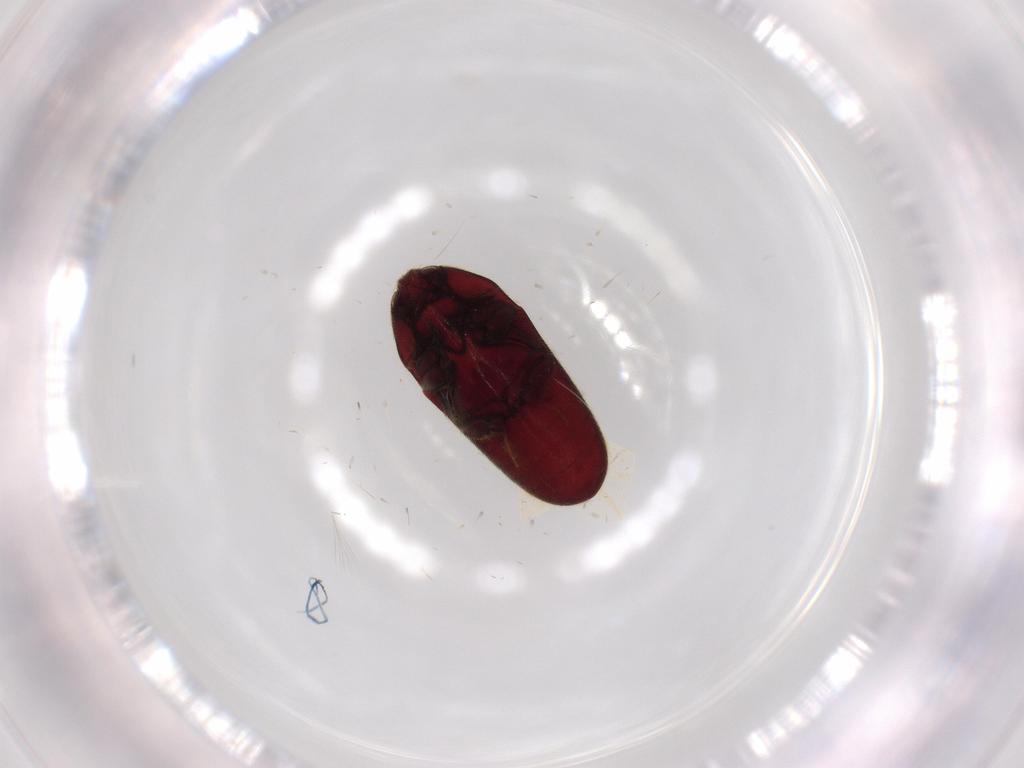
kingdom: Animalia
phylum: Arthropoda
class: Insecta
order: Coleoptera
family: Throscidae
